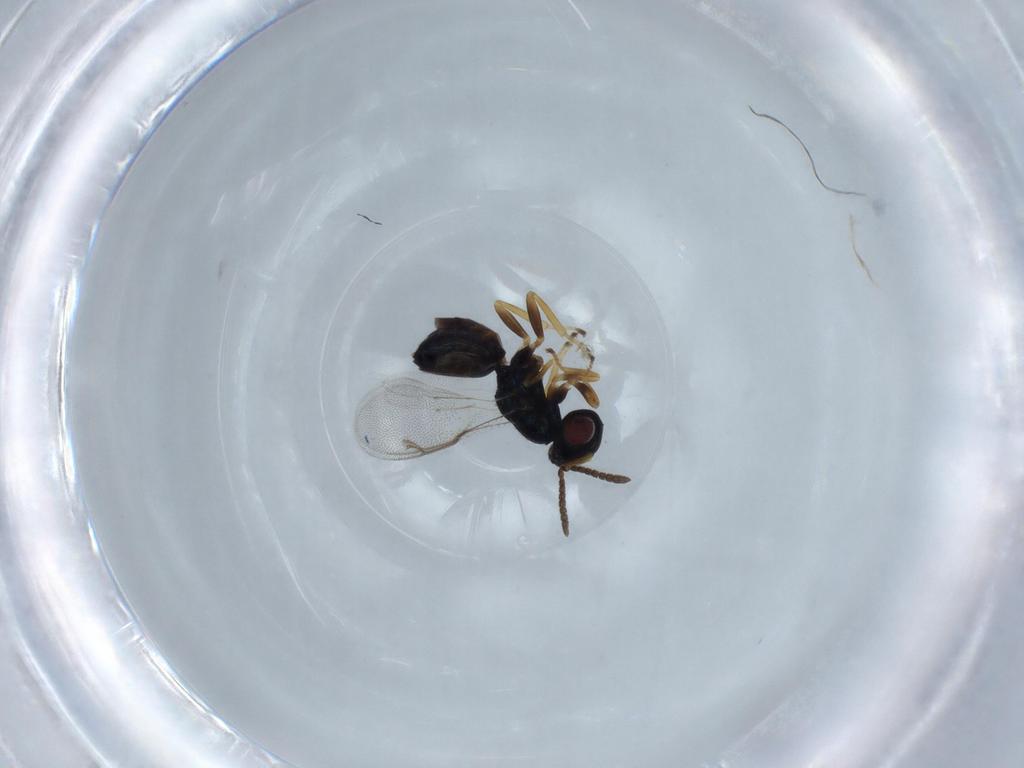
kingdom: Animalia
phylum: Arthropoda
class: Insecta
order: Hymenoptera
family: Pteromalidae
